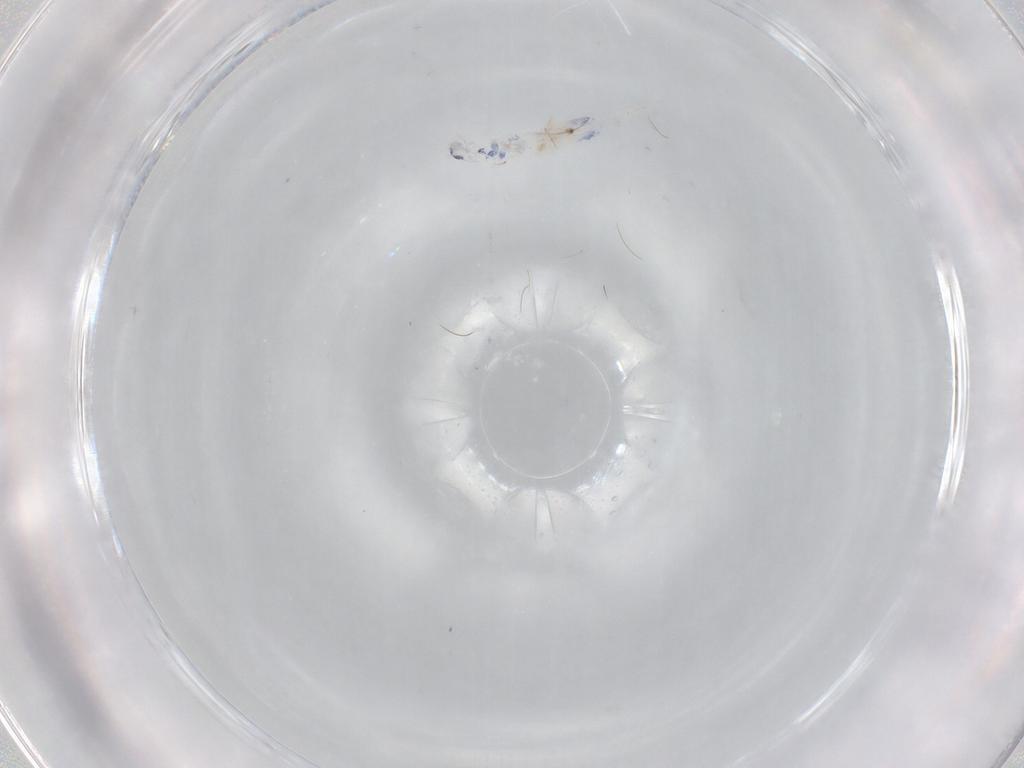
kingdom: Animalia
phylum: Arthropoda
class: Collembola
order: Entomobryomorpha
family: Entomobryidae
